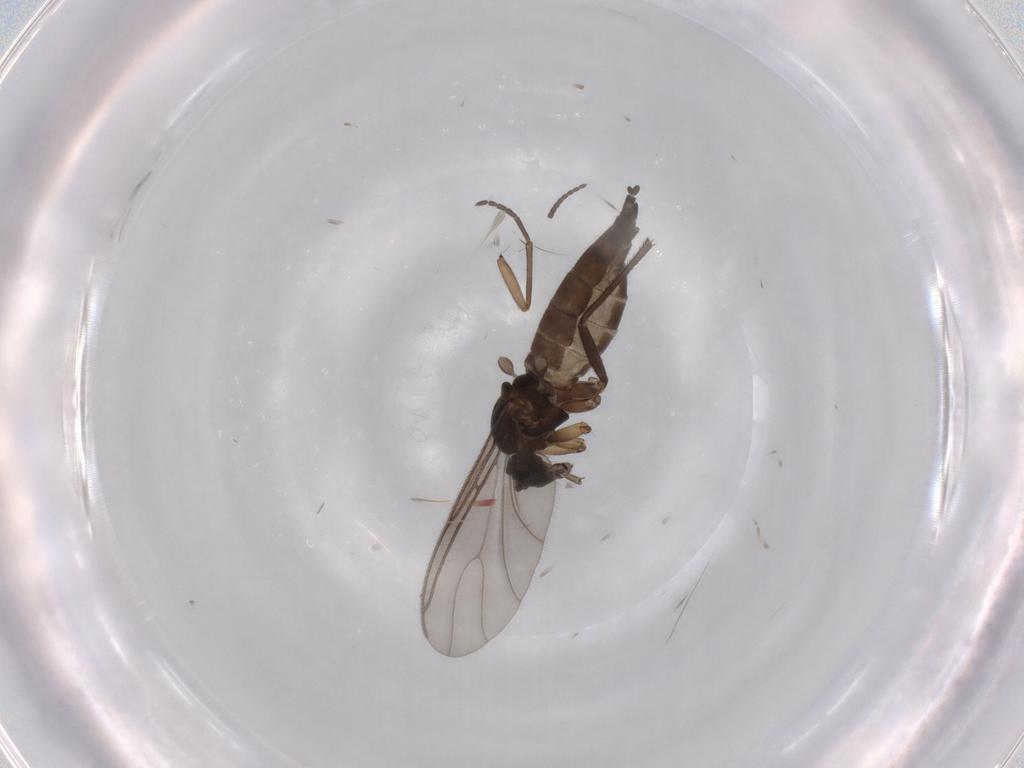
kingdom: Animalia
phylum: Arthropoda
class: Insecta
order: Diptera
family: Sciaridae
